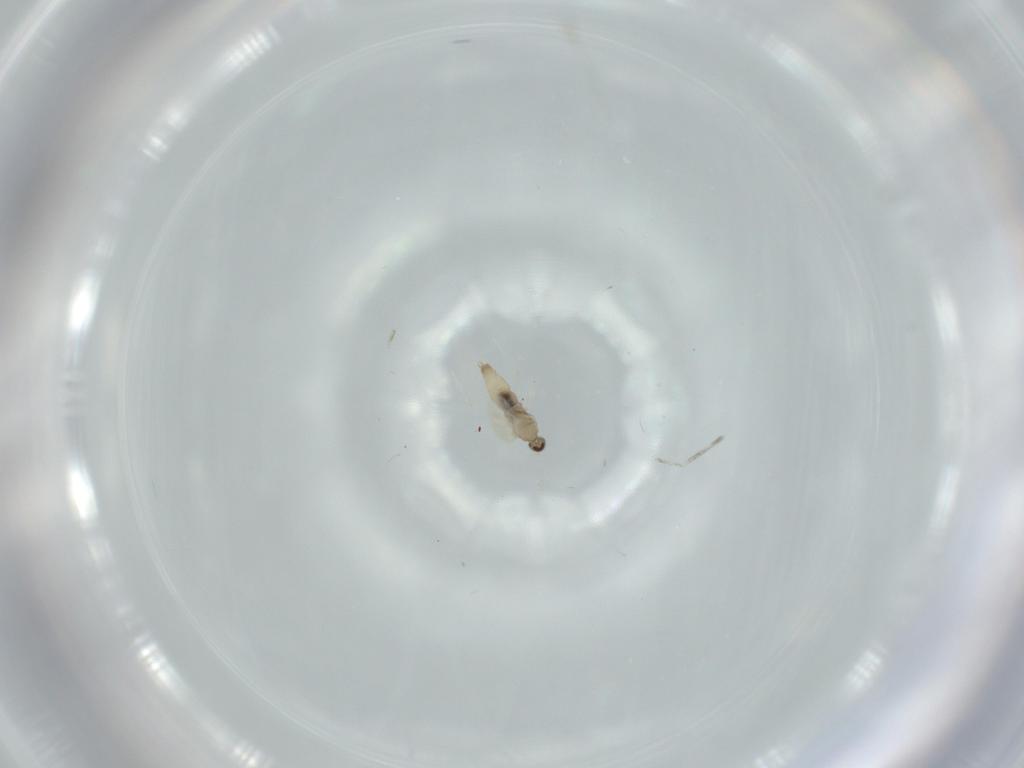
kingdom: Animalia
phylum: Arthropoda
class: Insecta
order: Diptera
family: Cecidomyiidae
